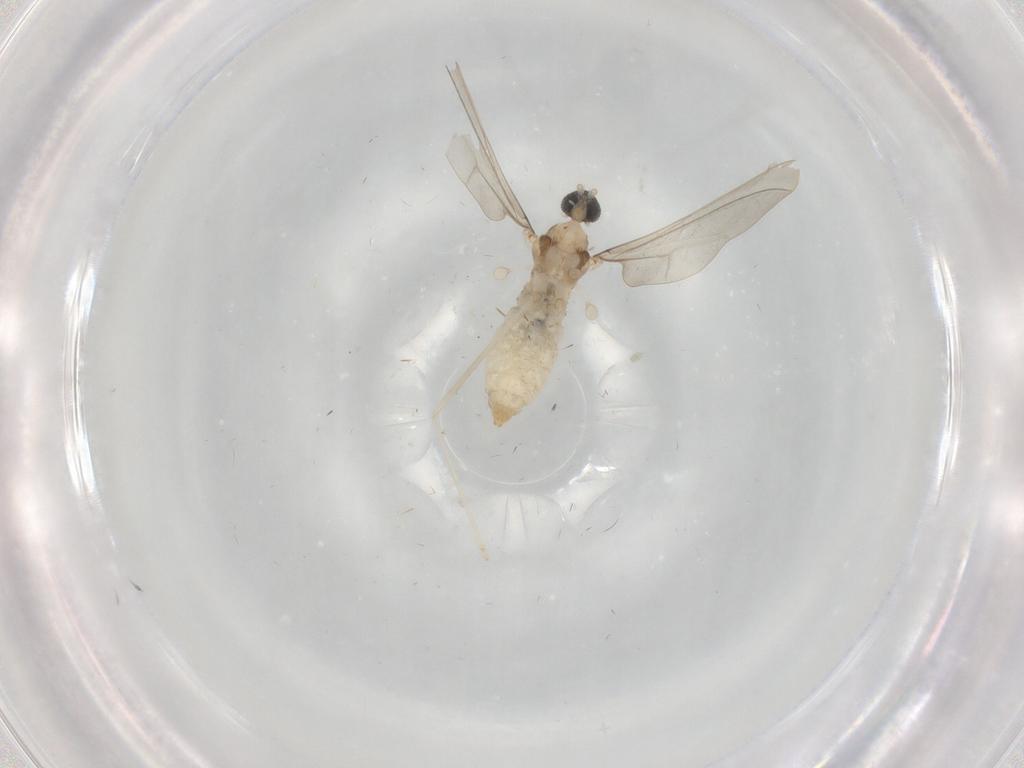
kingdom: Animalia
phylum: Arthropoda
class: Insecta
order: Diptera
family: Cecidomyiidae
